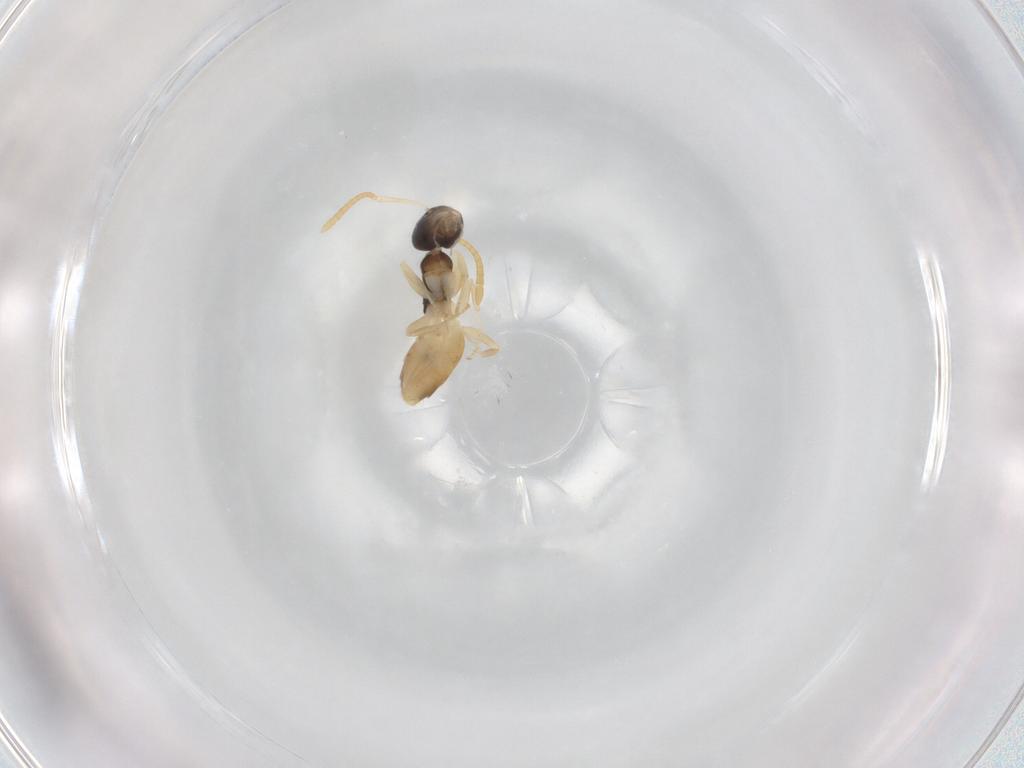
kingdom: Animalia
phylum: Arthropoda
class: Insecta
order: Hymenoptera
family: Formicidae
